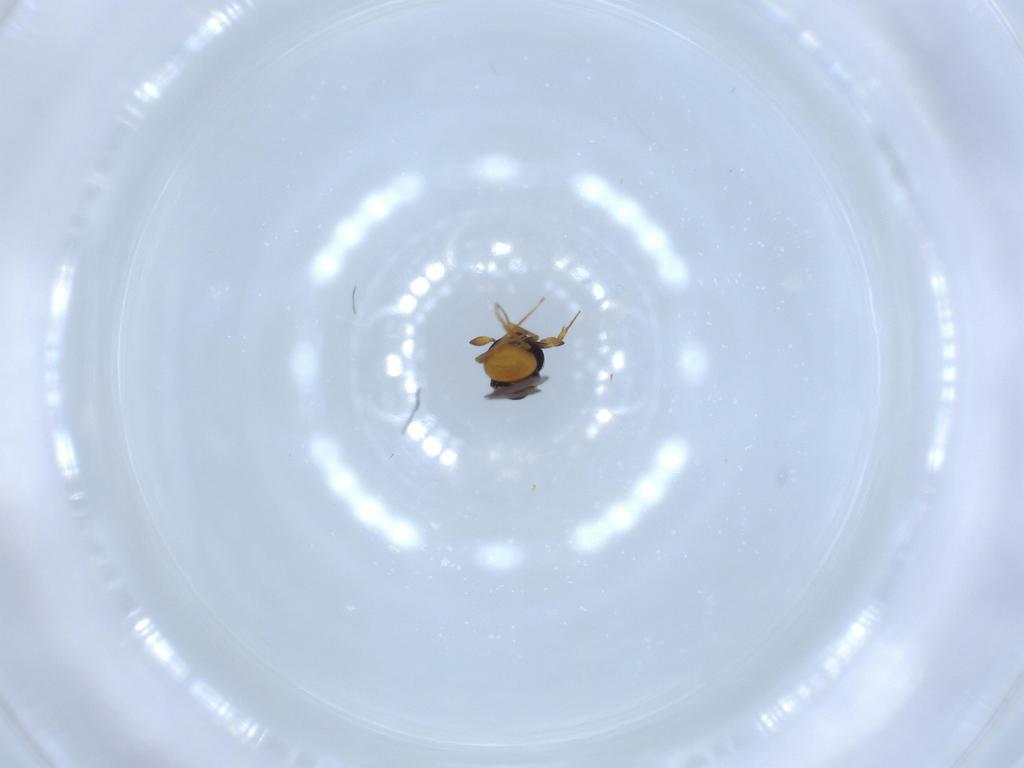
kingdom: Animalia
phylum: Arthropoda
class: Insecta
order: Hymenoptera
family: Scelionidae
